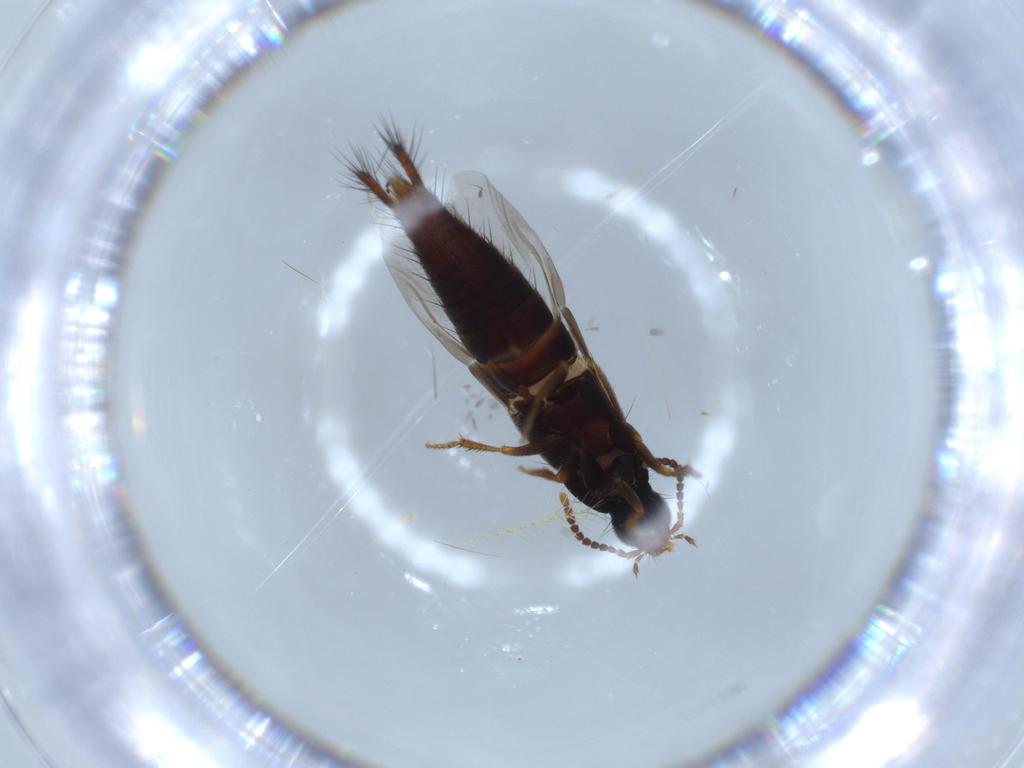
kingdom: Animalia
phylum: Arthropoda
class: Insecta
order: Coleoptera
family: Staphylinidae
